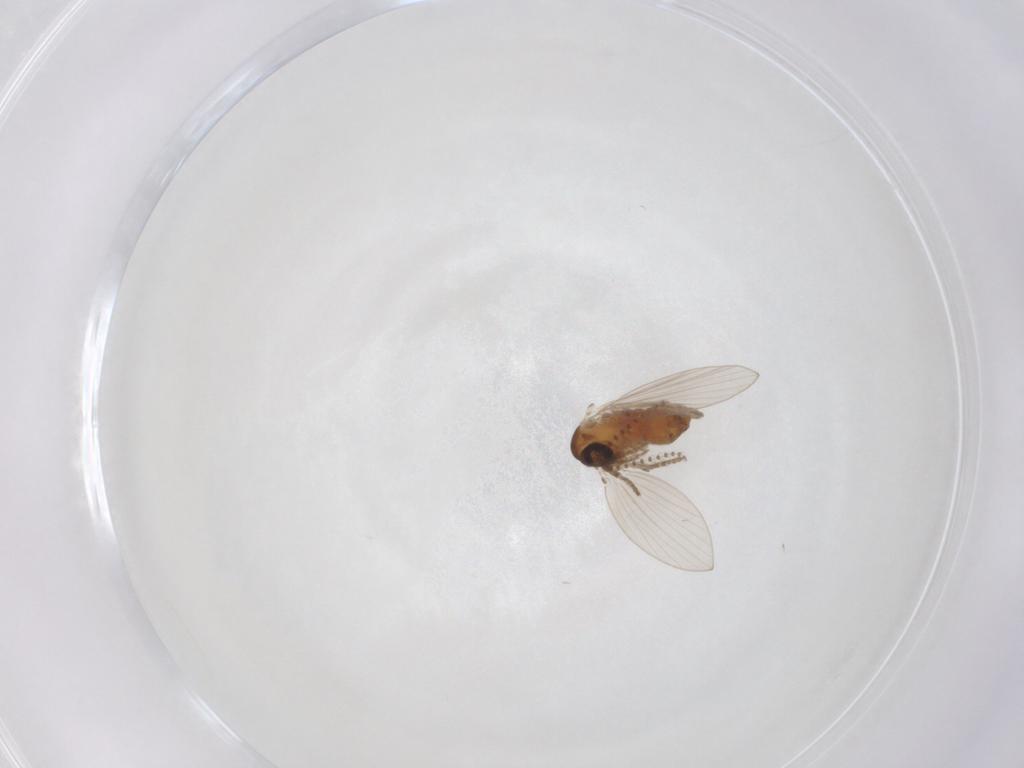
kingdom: Animalia
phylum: Arthropoda
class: Insecta
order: Diptera
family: Psychodidae
